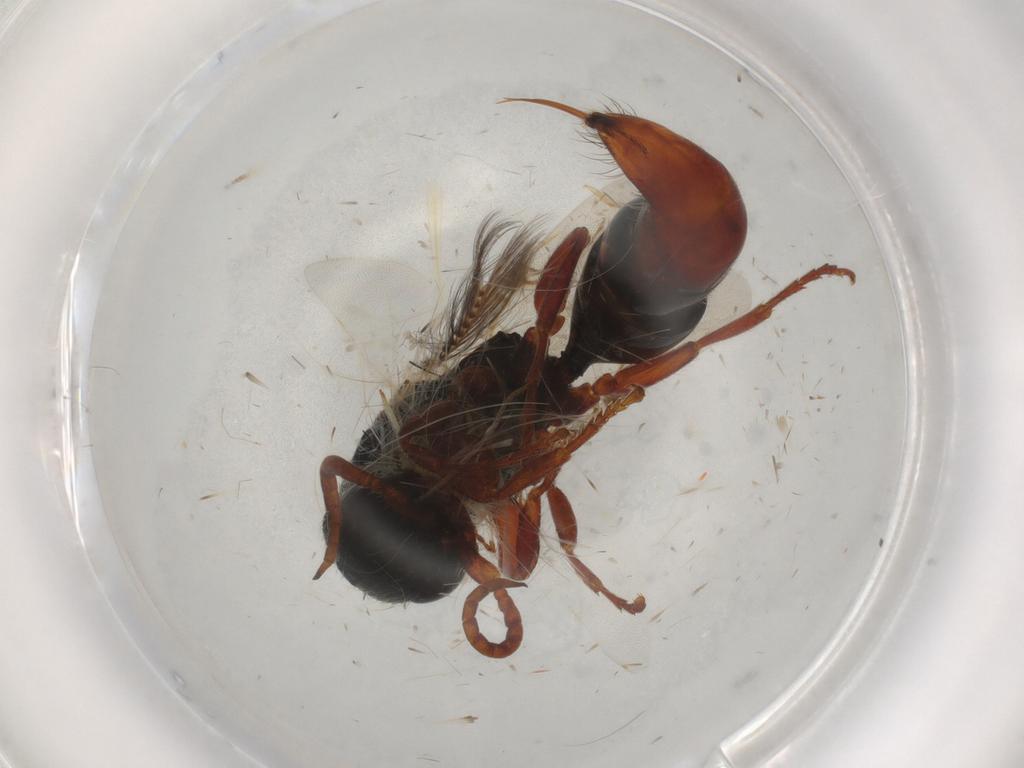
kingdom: Animalia
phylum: Arthropoda
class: Insecta
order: Hymenoptera
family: Bethylidae
